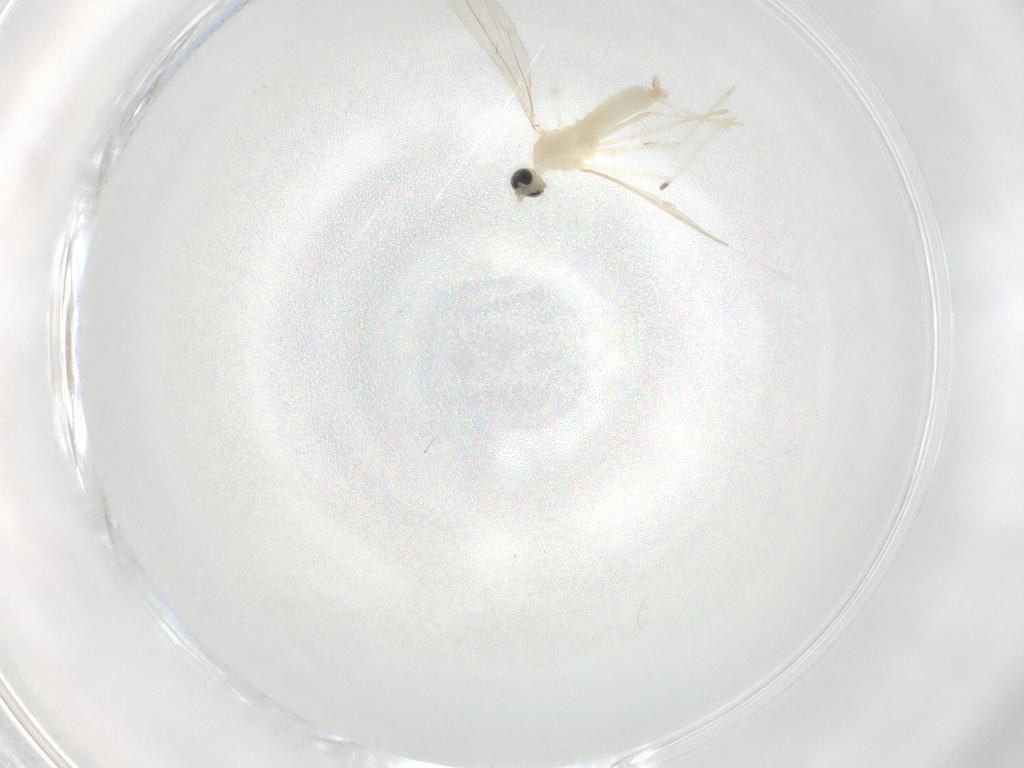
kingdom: Animalia
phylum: Arthropoda
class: Insecta
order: Diptera
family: Cecidomyiidae
